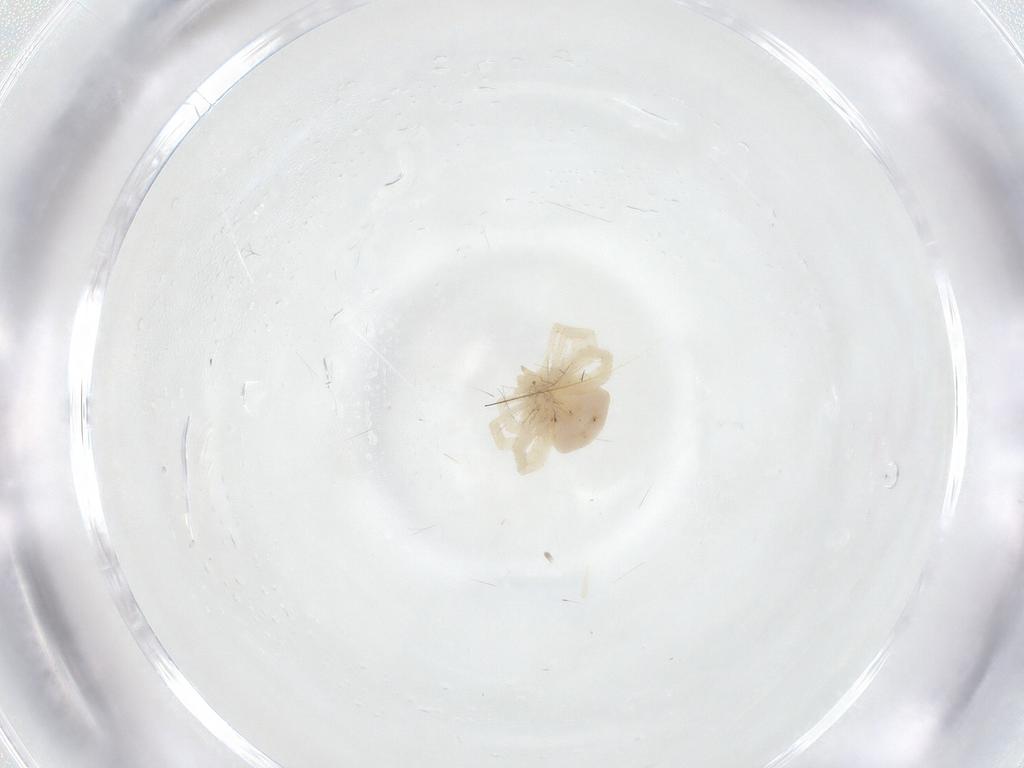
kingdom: Animalia
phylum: Arthropoda
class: Arachnida
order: Trombidiformes
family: Anystidae
